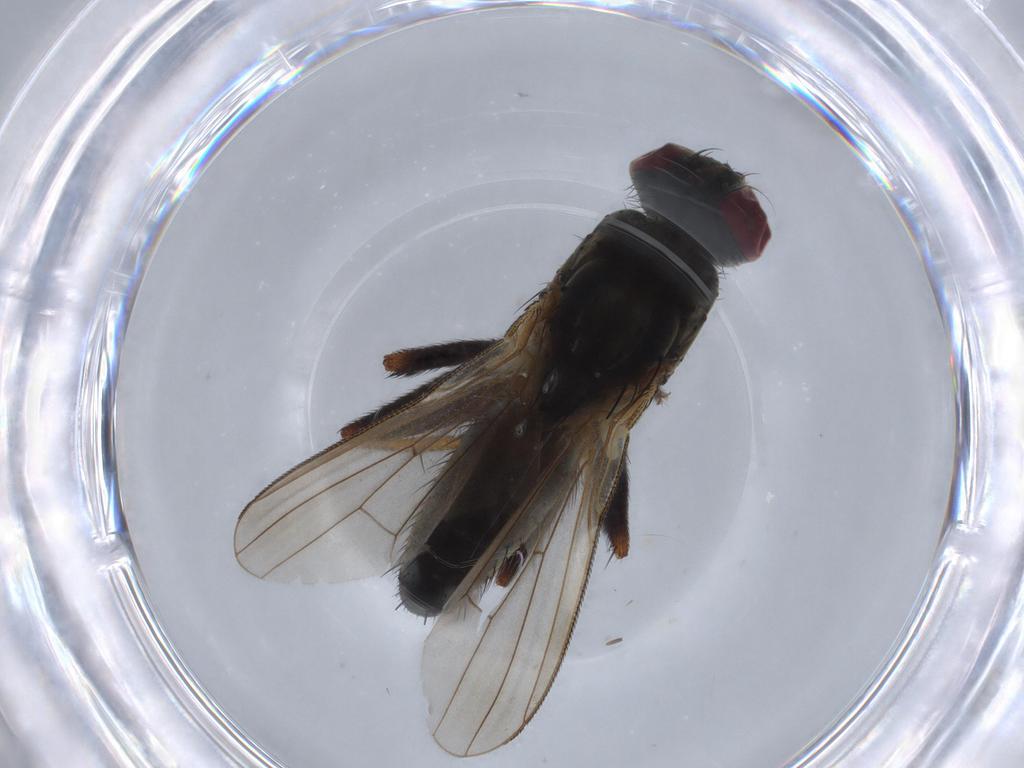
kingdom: Animalia
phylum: Arthropoda
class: Insecta
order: Diptera
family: Muscidae
